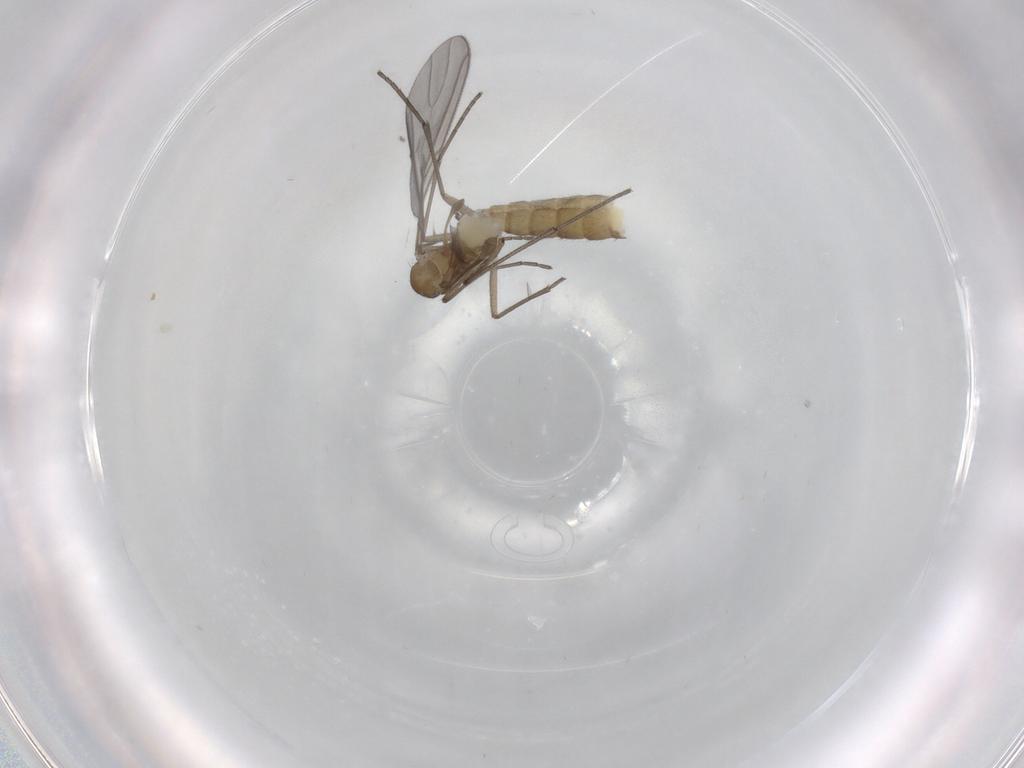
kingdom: Animalia
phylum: Arthropoda
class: Insecta
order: Diptera
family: Sciaridae
